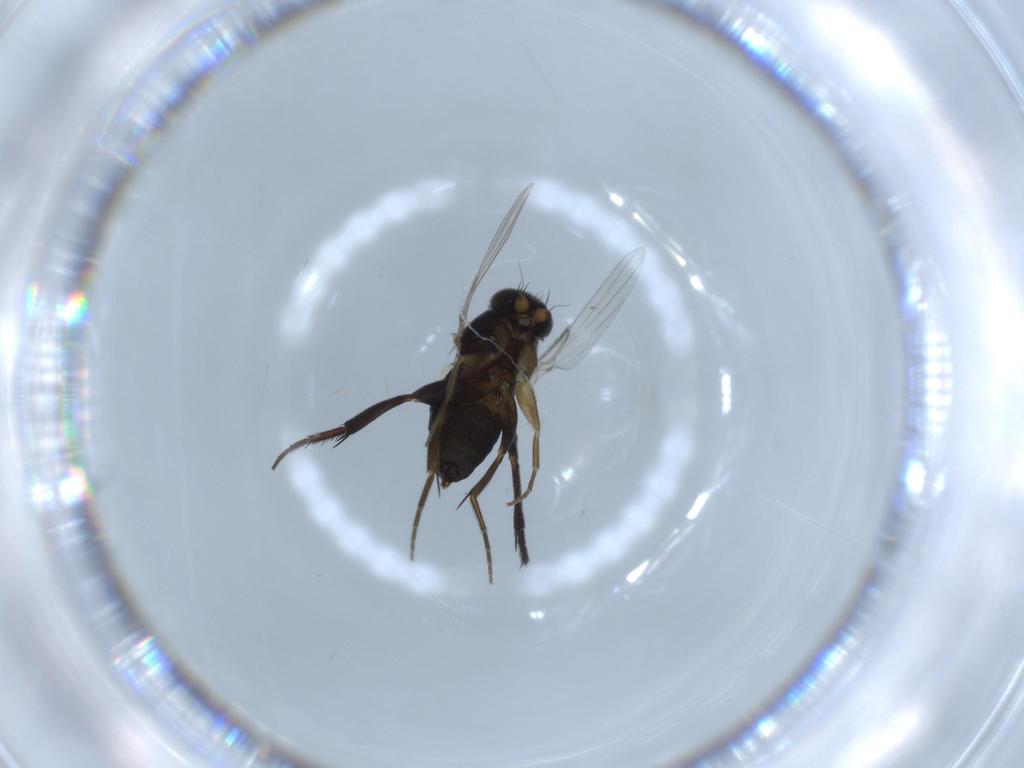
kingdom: Animalia
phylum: Arthropoda
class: Insecta
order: Diptera
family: Phoridae
